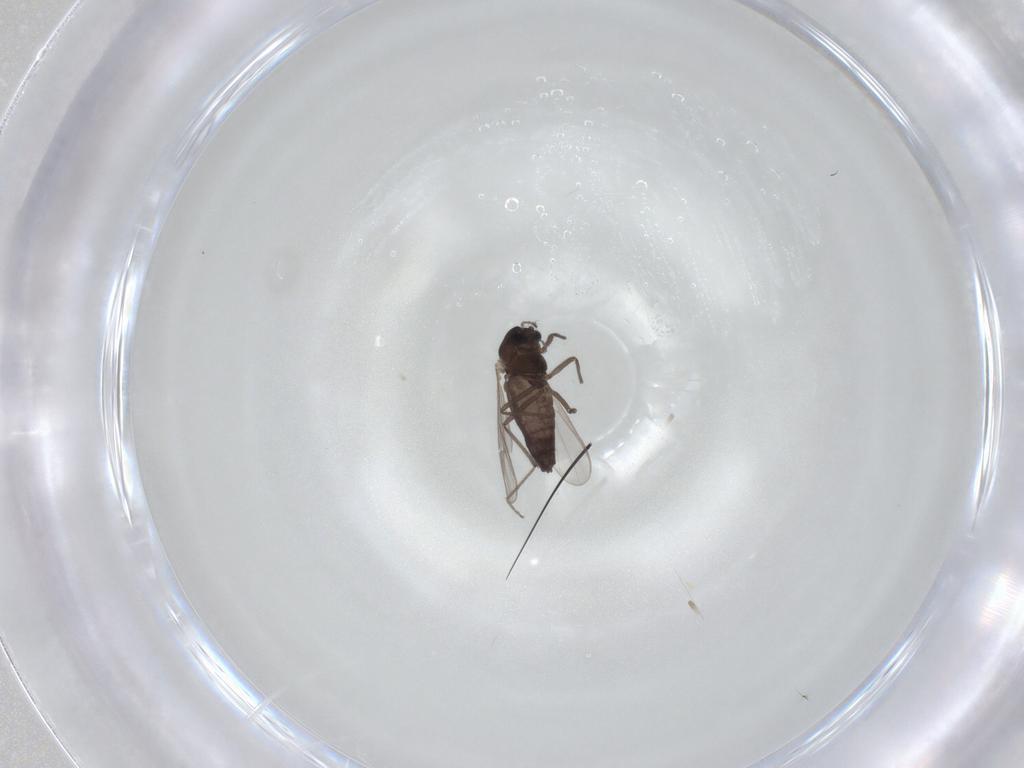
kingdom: Animalia
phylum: Arthropoda
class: Insecta
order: Diptera
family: Chironomidae
